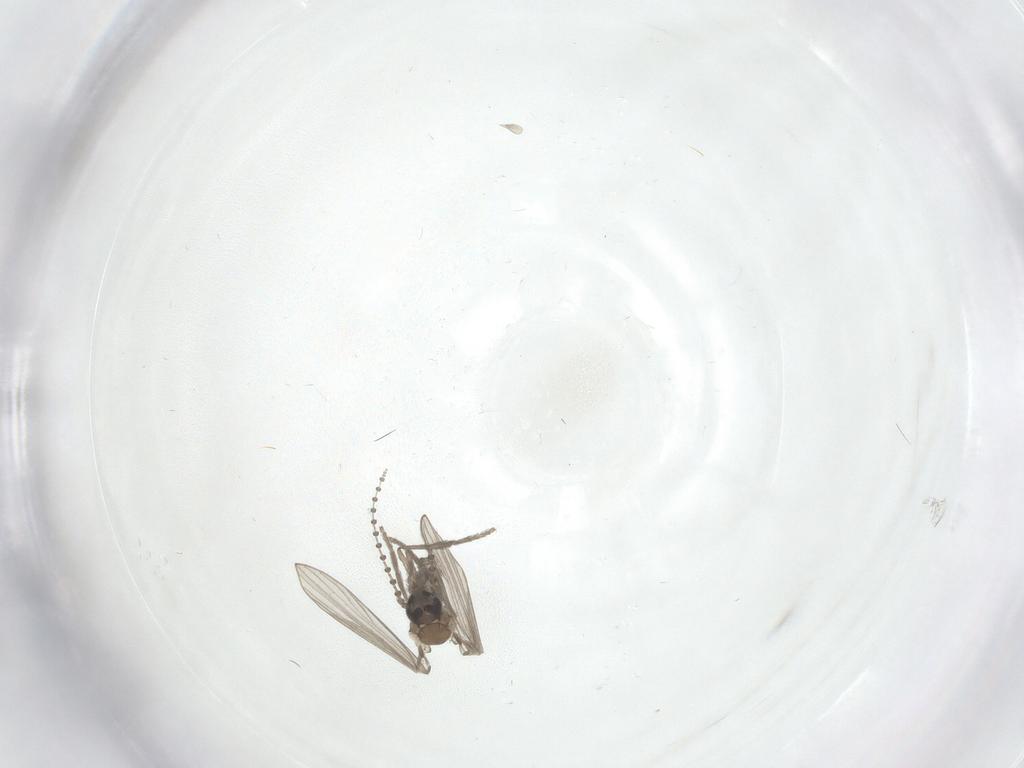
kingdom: Animalia
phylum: Arthropoda
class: Insecta
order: Diptera
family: Psychodidae
